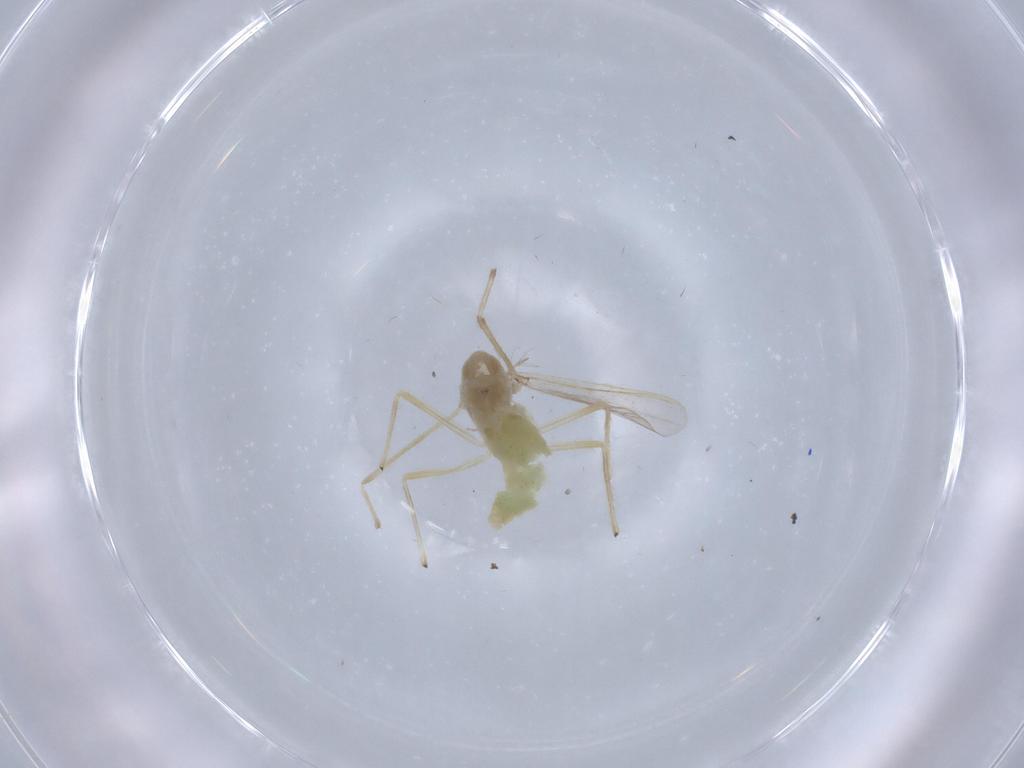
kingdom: Animalia
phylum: Arthropoda
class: Insecta
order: Diptera
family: Chironomidae
